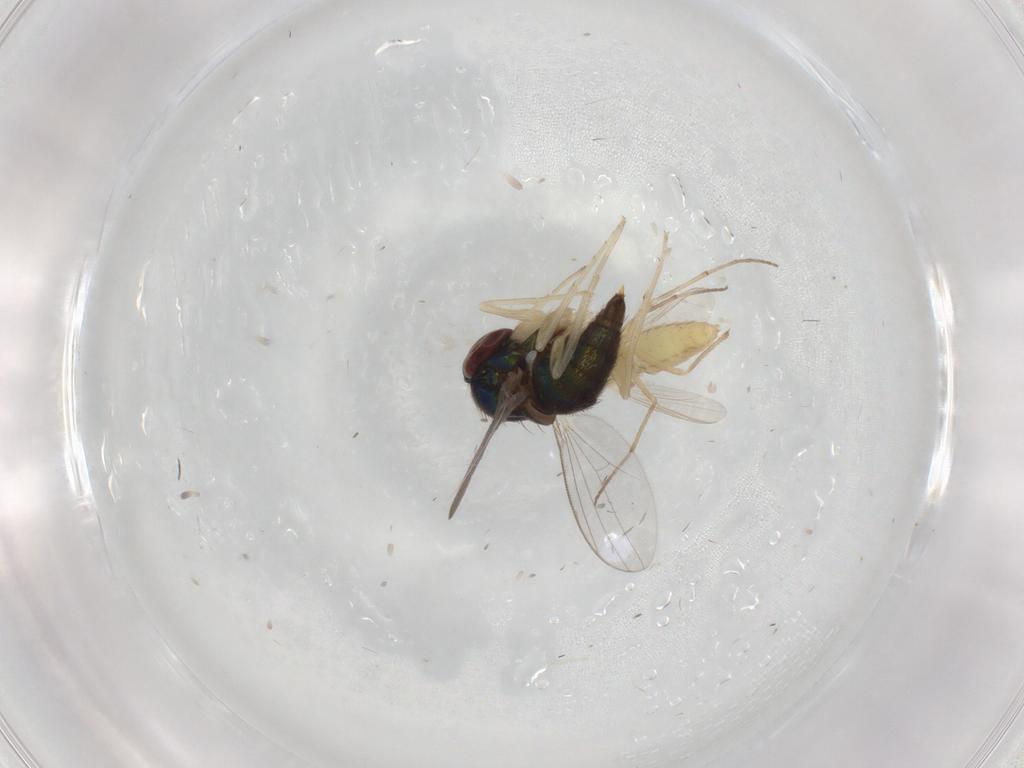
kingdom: Animalia
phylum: Arthropoda
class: Insecta
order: Diptera
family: Dolichopodidae
